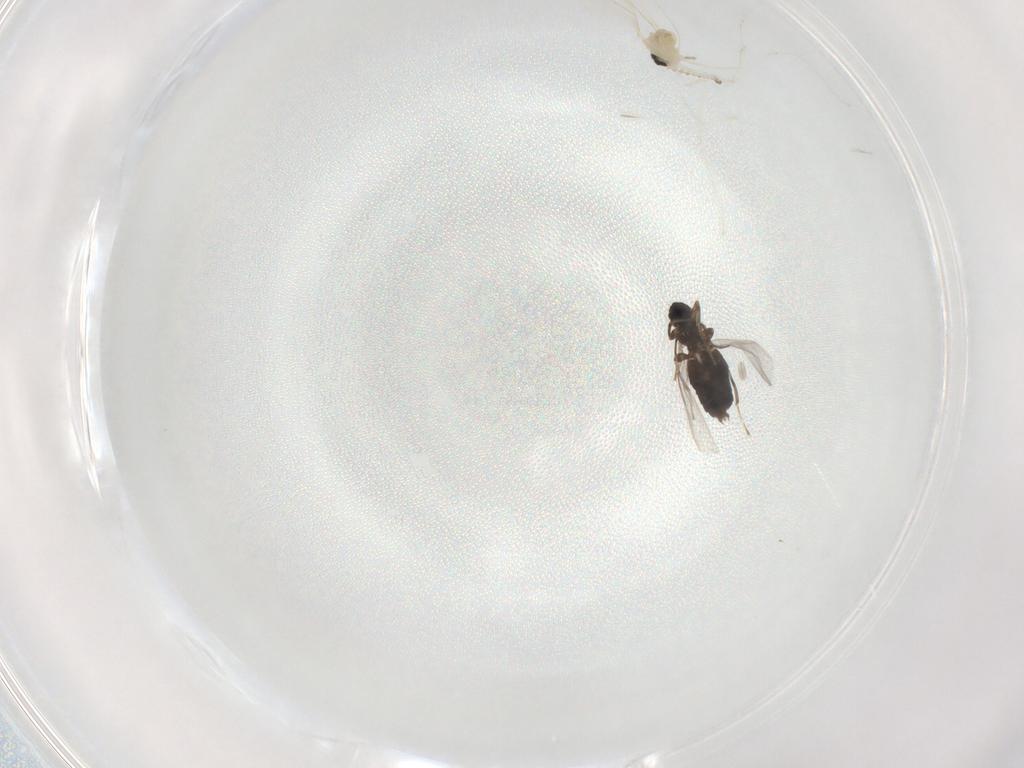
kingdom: Animalia
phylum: Arthropoda
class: Insecta
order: Diptera
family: Scatopsidae
